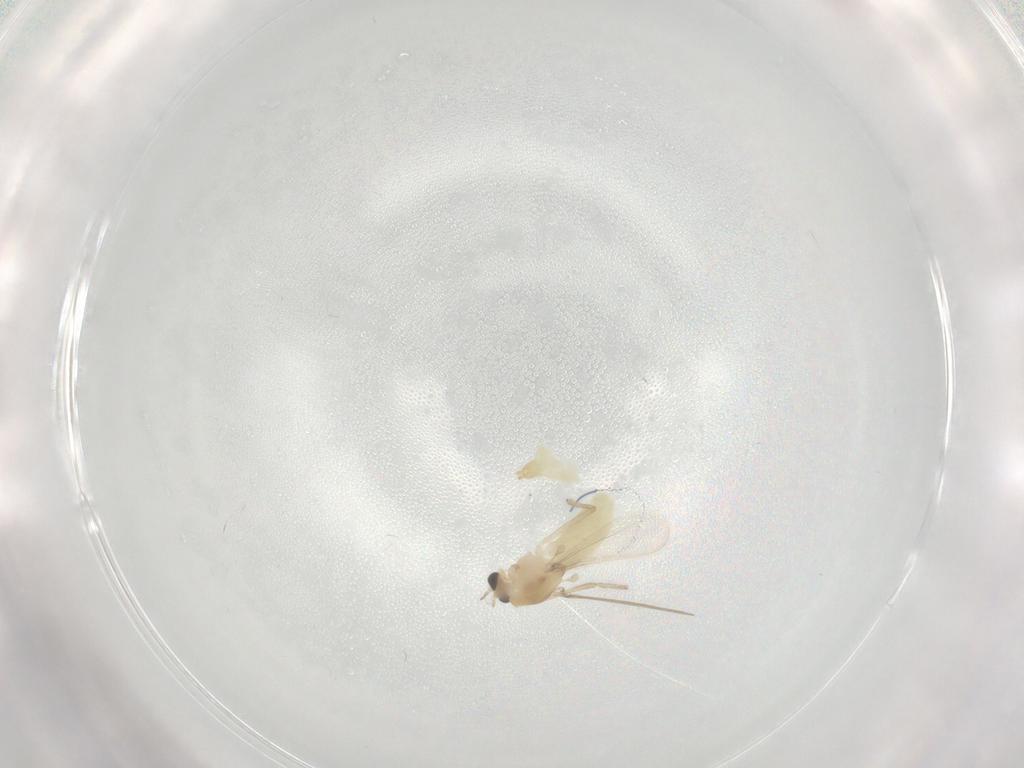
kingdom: Animalia
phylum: Arthropoda
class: Insecta
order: Diptera
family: Chironomidae
